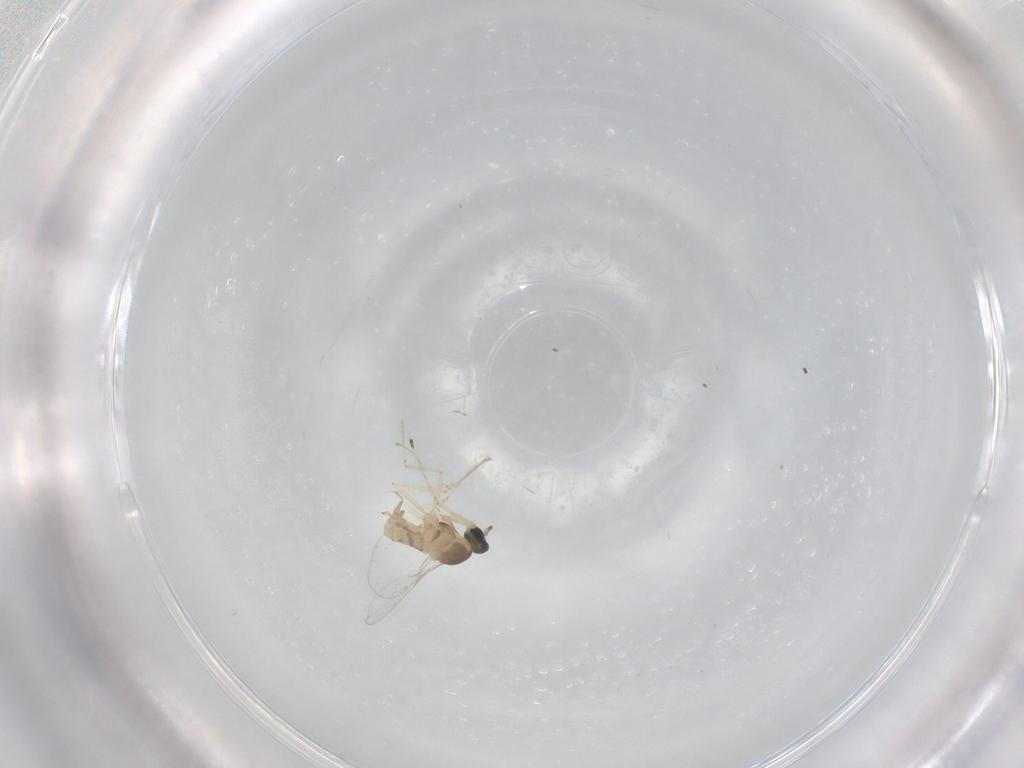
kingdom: Animalia
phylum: Arthropoda
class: Insecta
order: Diptera
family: Cecidomyiidae
